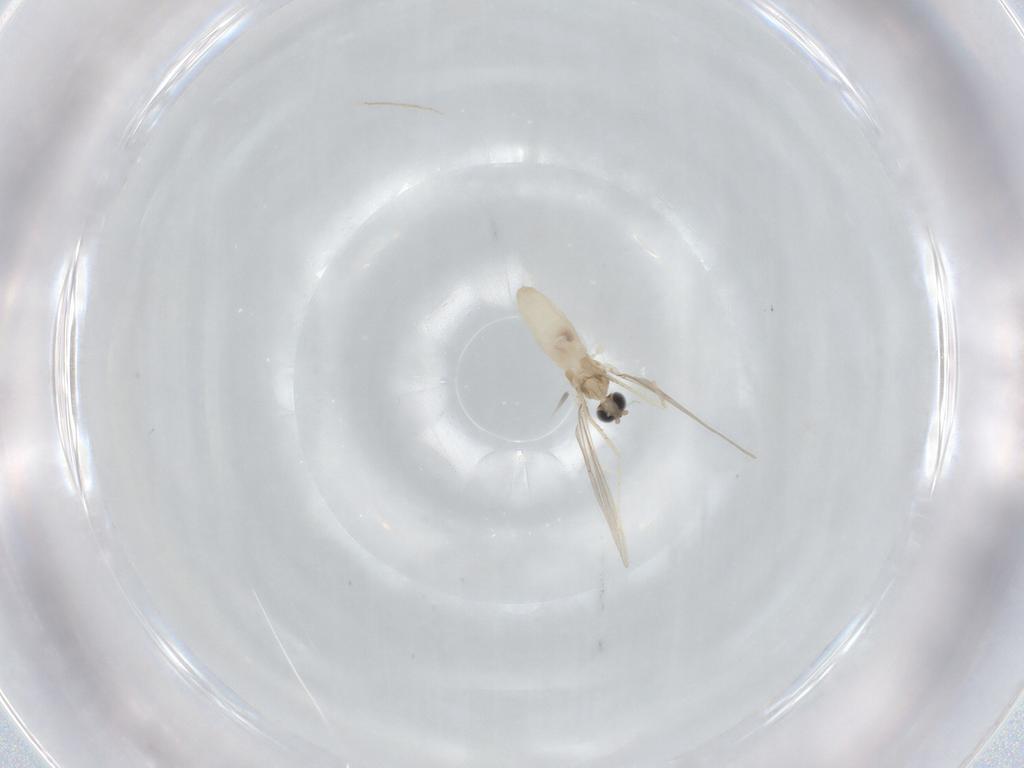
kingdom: Animalia
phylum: Arthropoda
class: Insecta
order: Diptera
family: Cecidomyiidae
